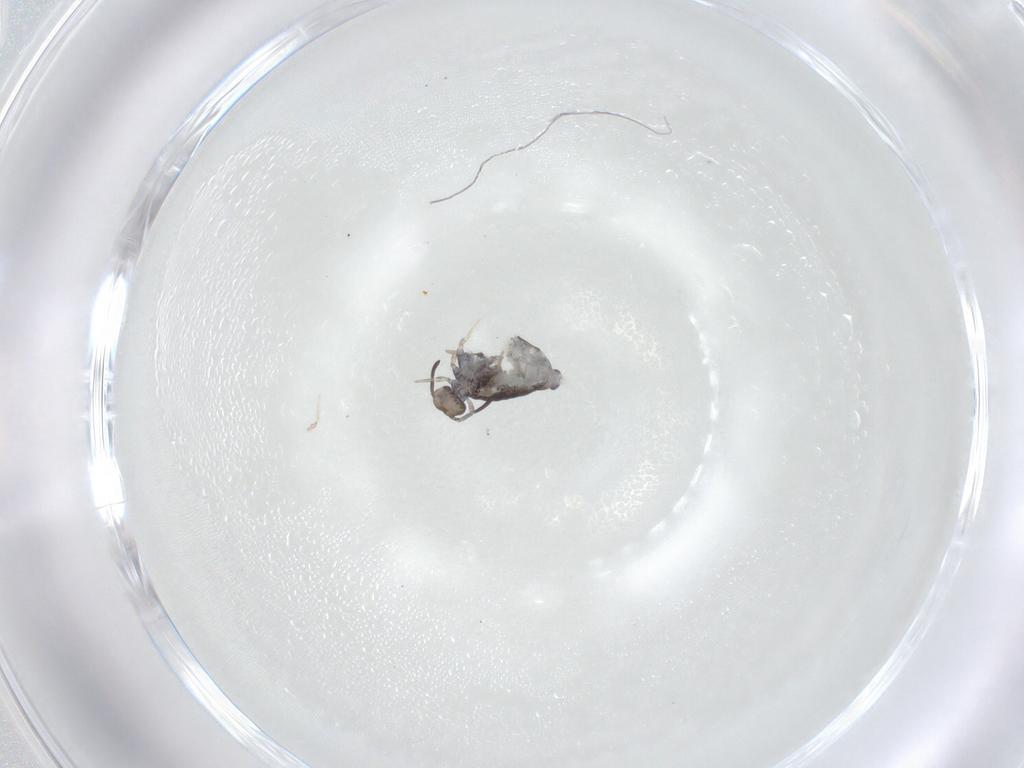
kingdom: Animalia
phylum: Arthropoda
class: Collembola
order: Symphypleona
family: Katiannidae
